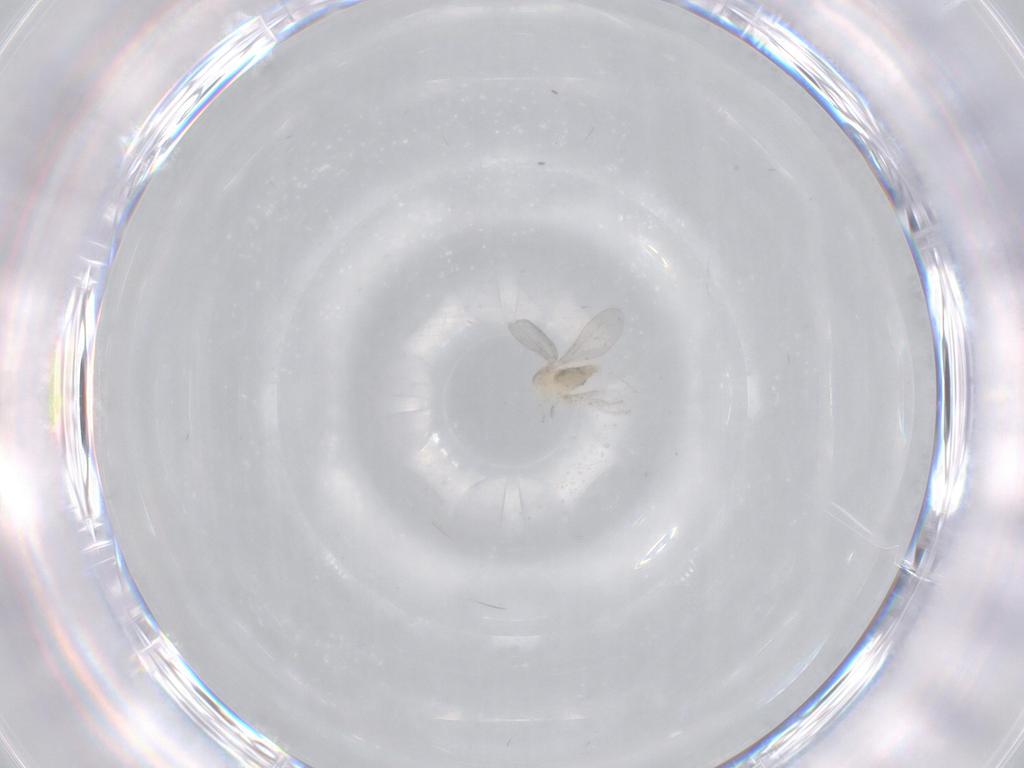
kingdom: Animalia
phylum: Arthropoda
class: Insecta
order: Diptera
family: Cecidomyiidae
